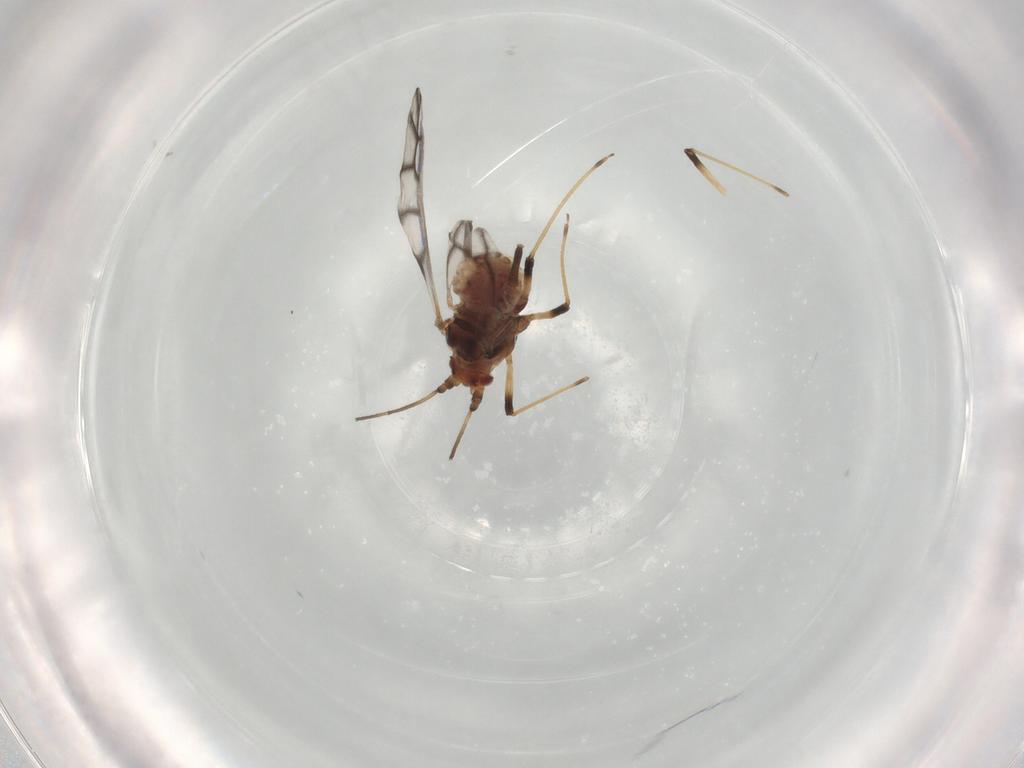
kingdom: Animalia
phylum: Arthropoda
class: Insecta
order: Hemiptera
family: Aphididae
